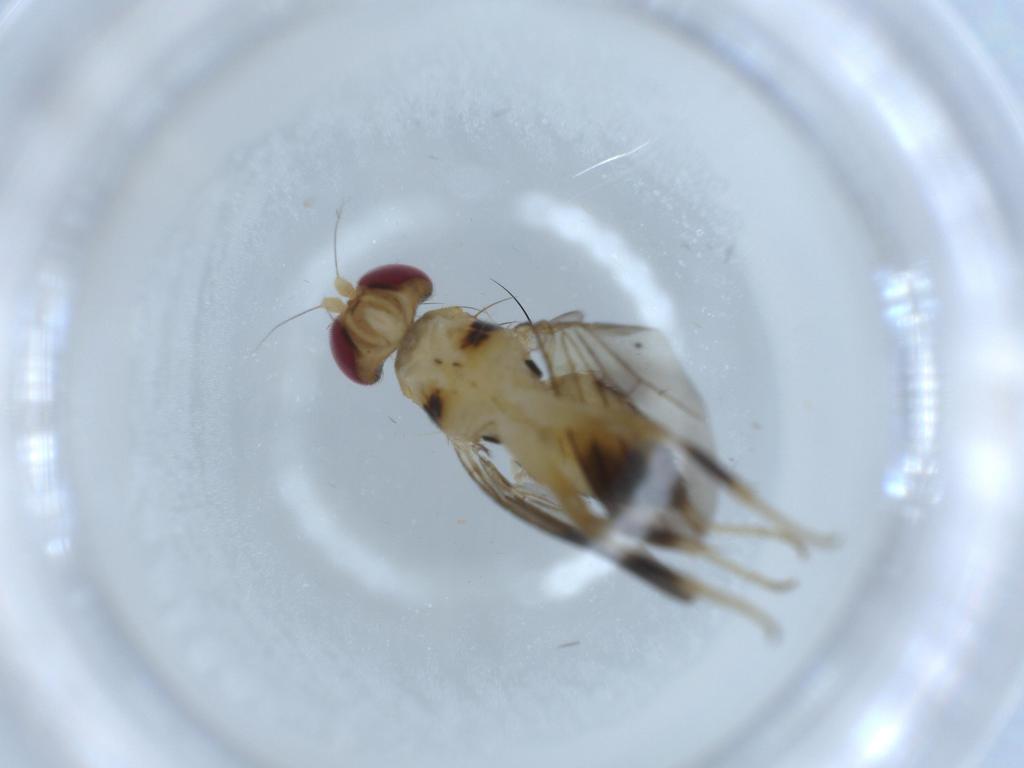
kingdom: Animalia
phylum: Arthropoda
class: Insecta
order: Diptera
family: Clusiidae
